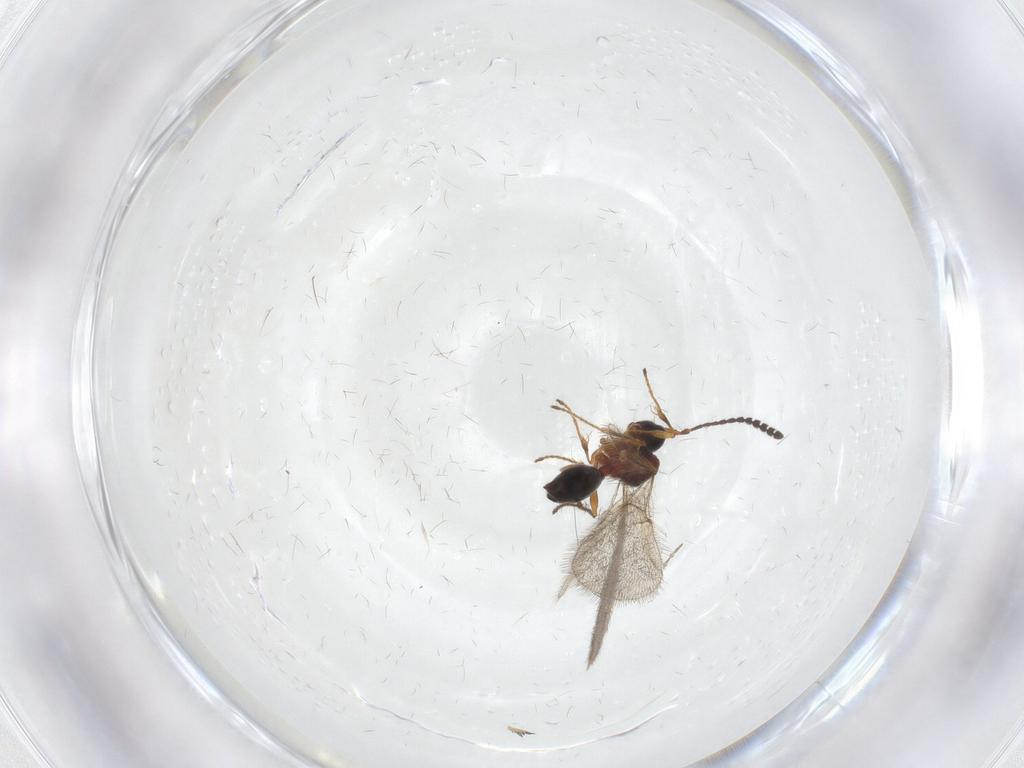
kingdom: Animalia
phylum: Arthropoda
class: Insecta
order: Hymenoptera
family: Diapriidae
